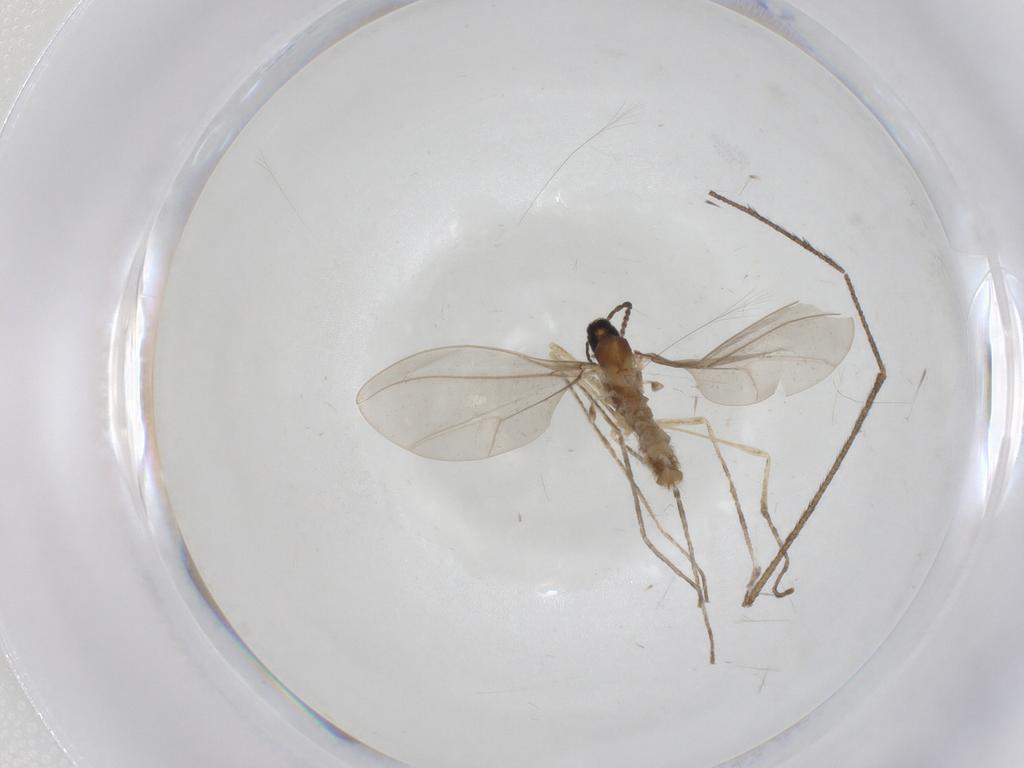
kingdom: Animalia
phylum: Arthropoda
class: Insecta
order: Diptera
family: Cecidomyiidae
